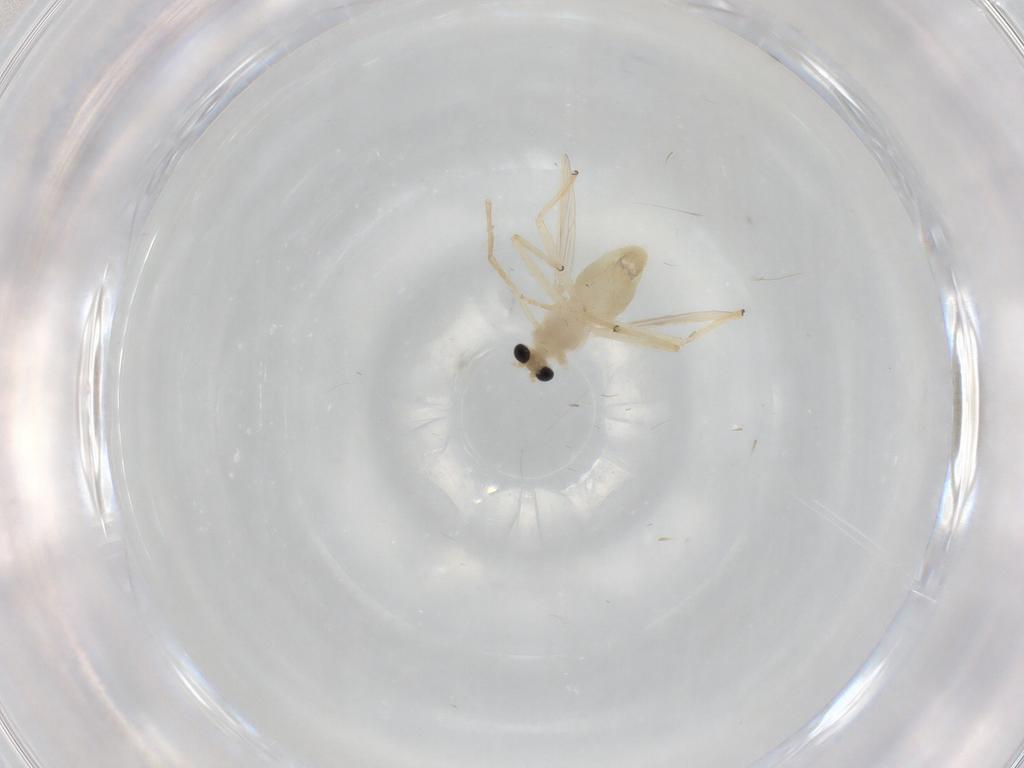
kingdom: Animalia
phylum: Arthropoda
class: Insecta
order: Diptera
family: Chironomidae
